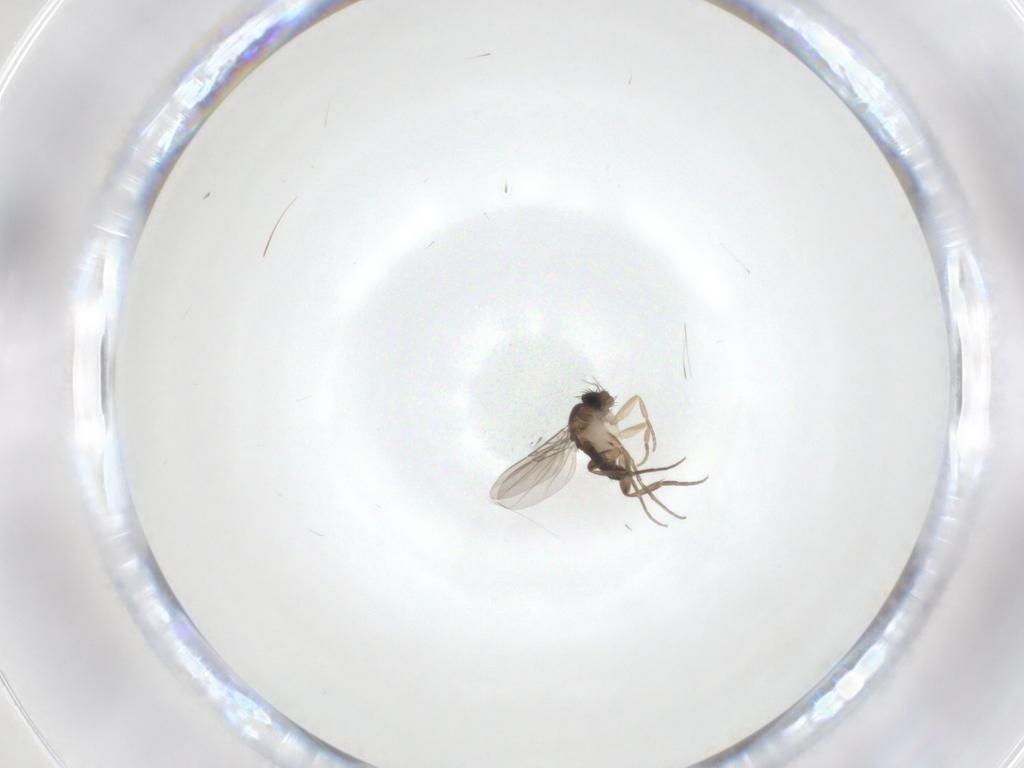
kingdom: Animalia
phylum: Arthropoda
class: Insecta
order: Diptera
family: Phoridae
